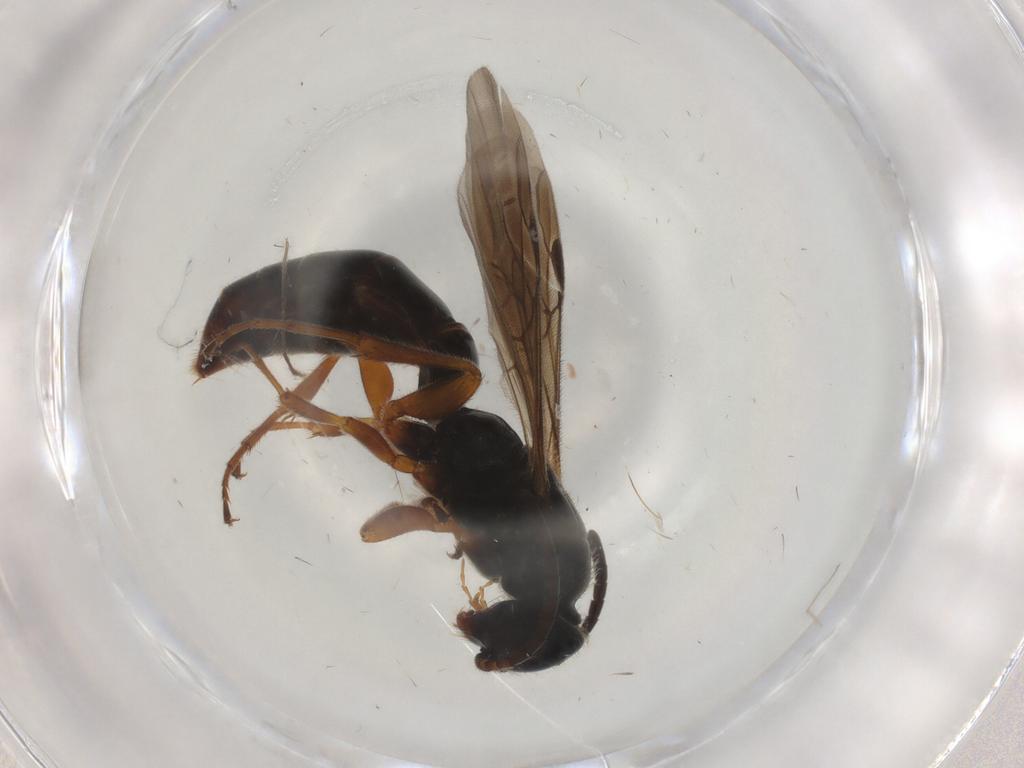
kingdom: Animalia
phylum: Arthropoda
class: Insecta
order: Hymenoptera
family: Sierolomorphidae
